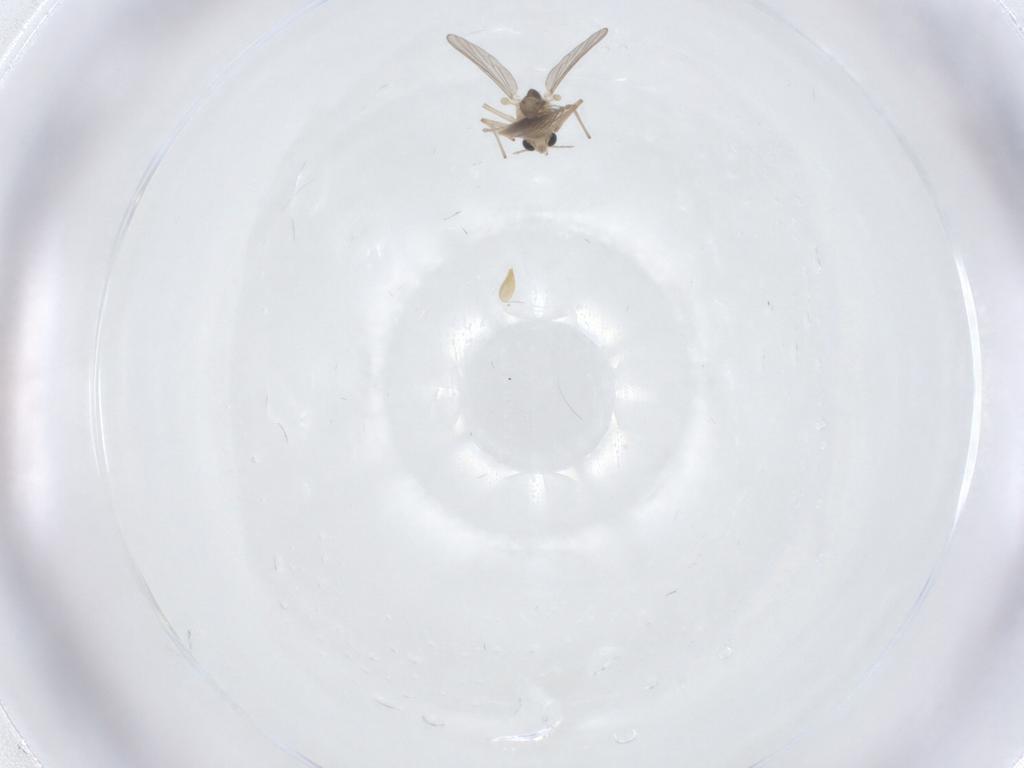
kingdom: Animalia
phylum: Arthropoda
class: Insecta
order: Diptera
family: Chironomidae
